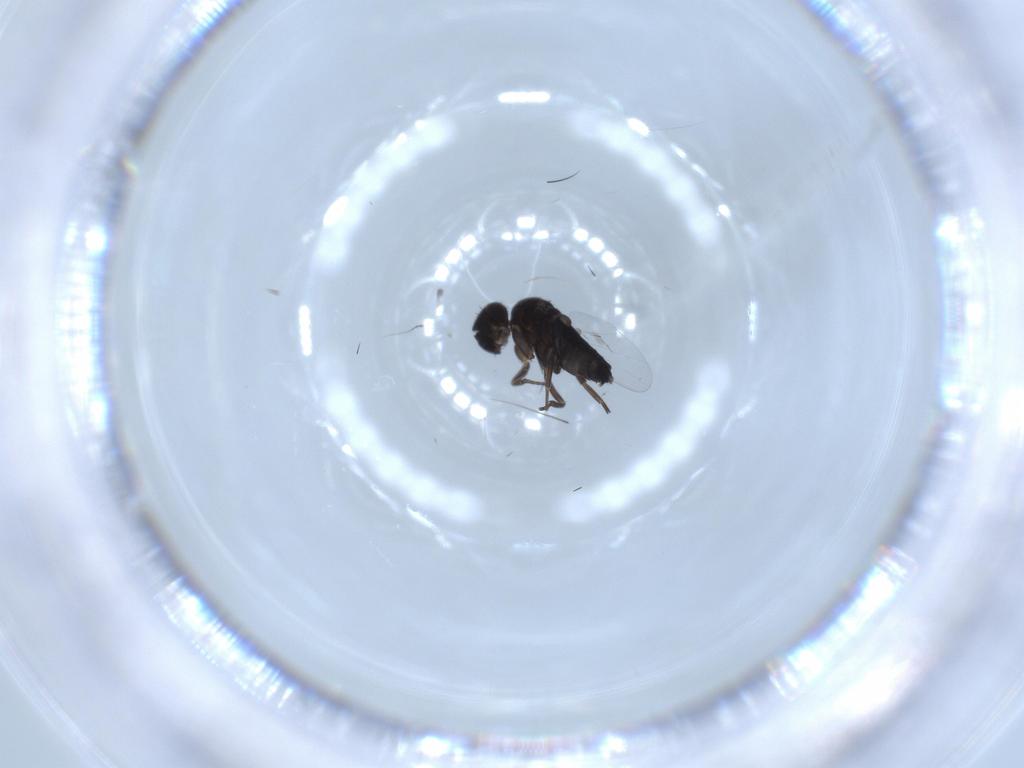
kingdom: Animalia
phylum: Arthropoda
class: Insecta
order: Diptera
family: Phoridae
